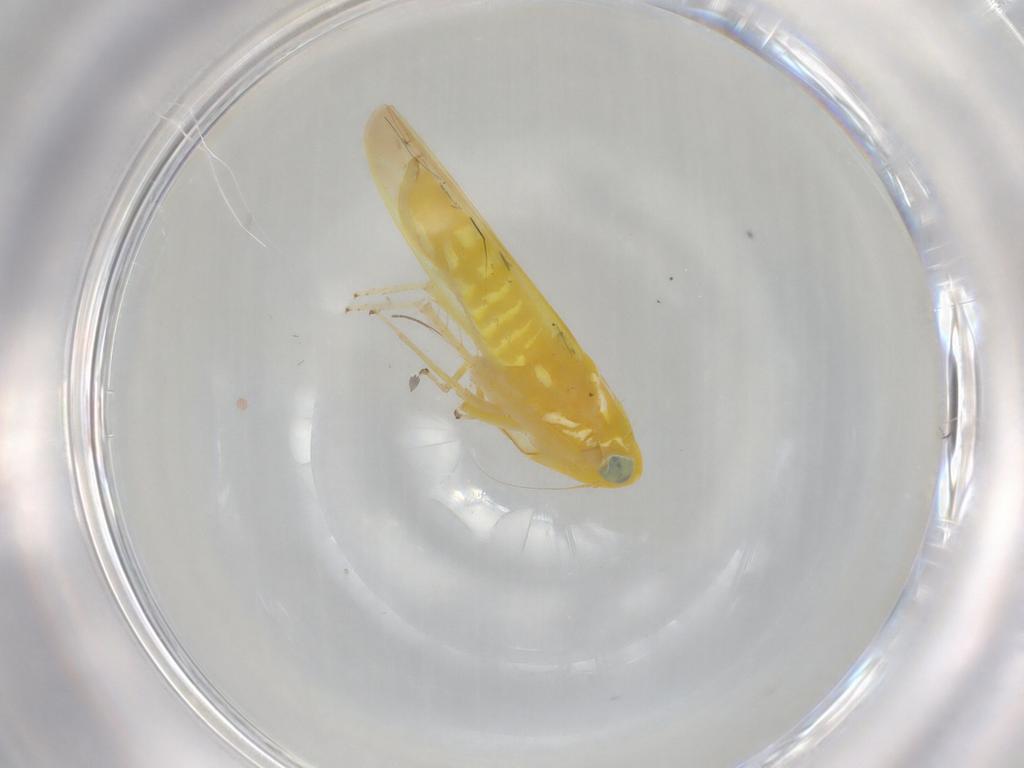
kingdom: Animalia
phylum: Arthropoda
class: Insecta
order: Hemiptera
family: Cicadellidae
